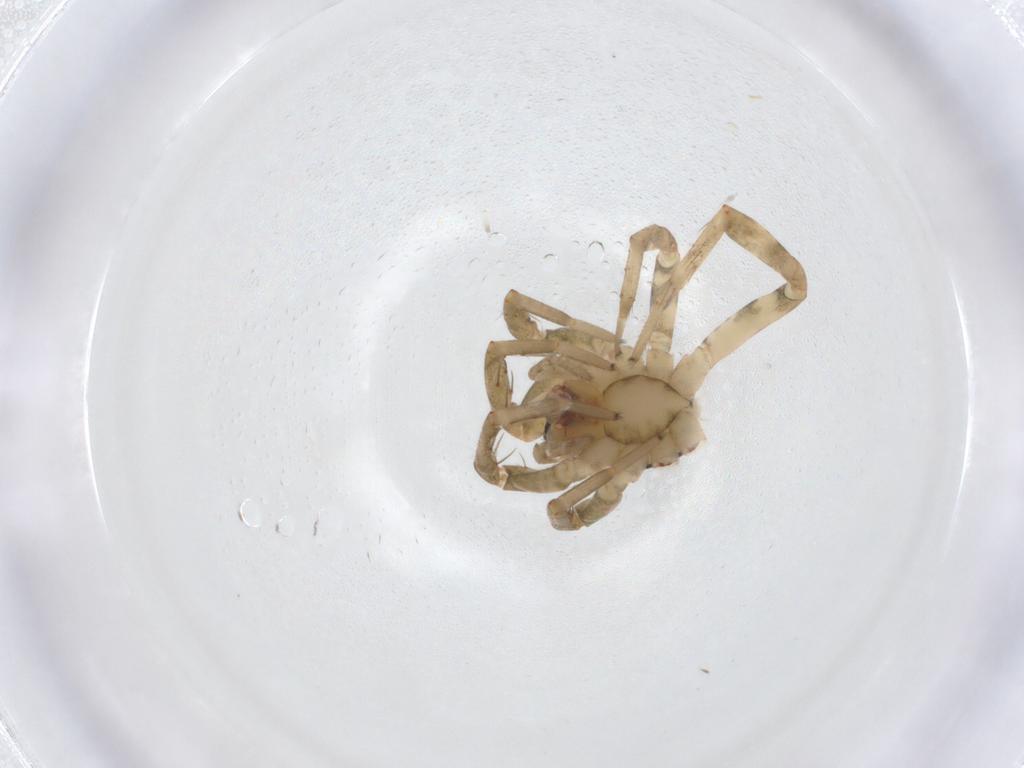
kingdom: Animalia
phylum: Arthropoda
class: Arachnida
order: Araneae
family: Anyphaenidae
